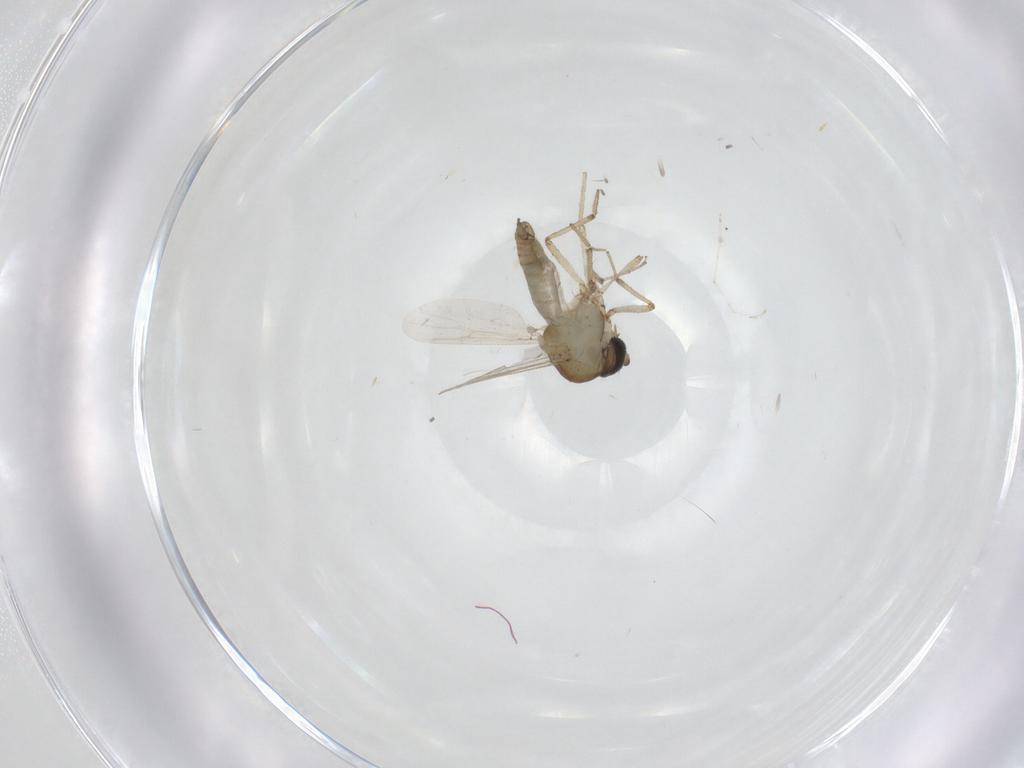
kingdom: Animalia
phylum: Arthropoda
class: Insecta
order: Diptera
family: Cecidomyiidae
